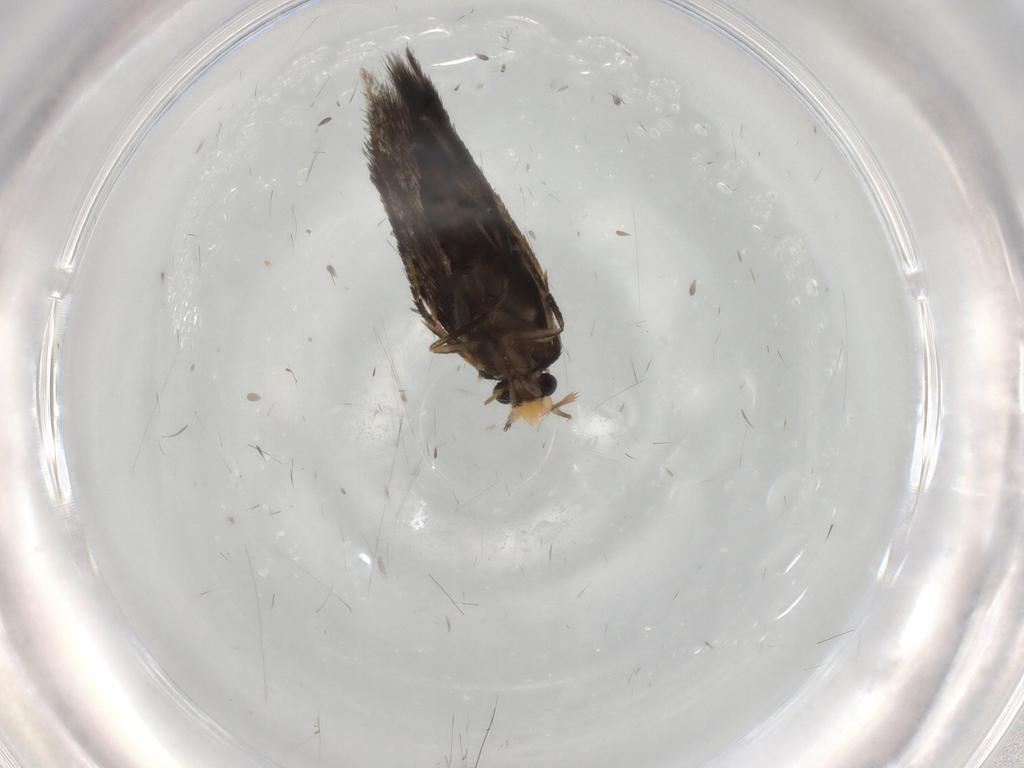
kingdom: Animalia
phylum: Arthropoda
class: Insecta
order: Lepidoptera
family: Nepticulidae
